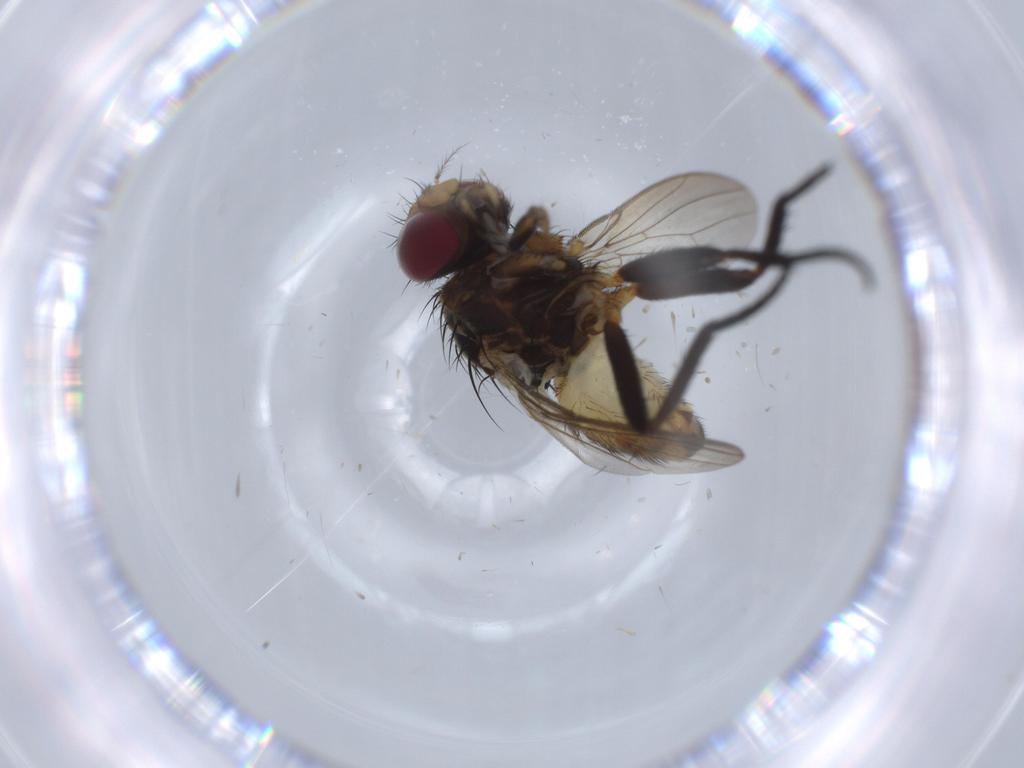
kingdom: Animalia
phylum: Arthropoda
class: Insecta
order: Diptera
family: Anthomyiidae
